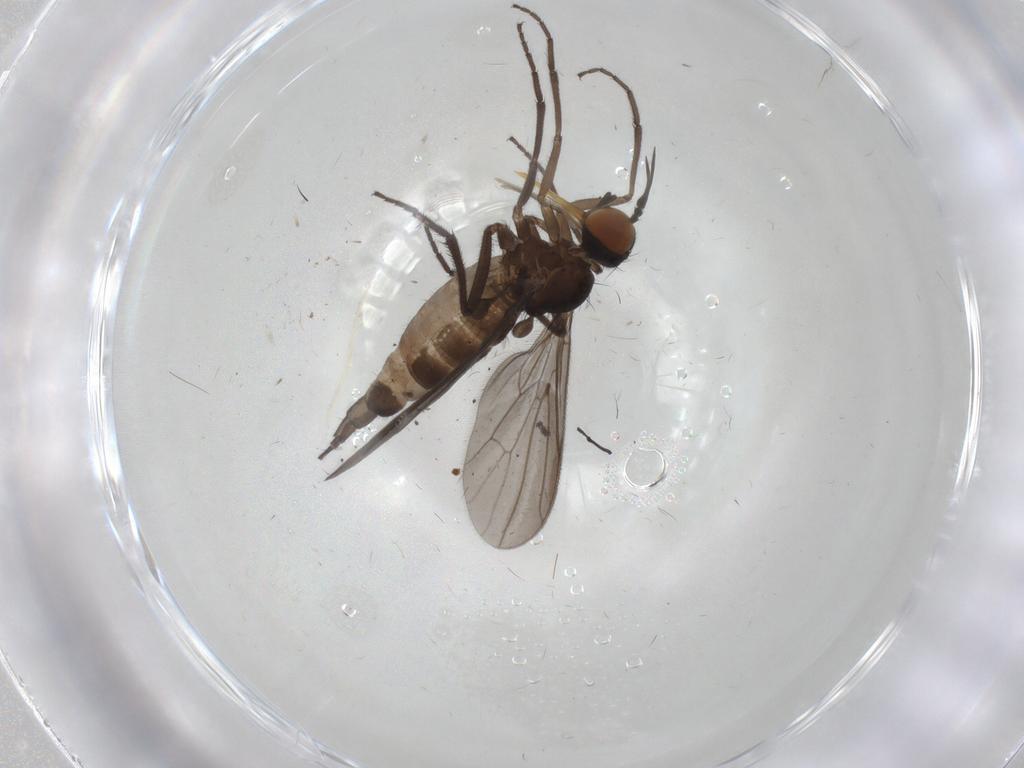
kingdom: Animalia
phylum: Arthropoda
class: Insecta
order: Diptera
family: Empididae
